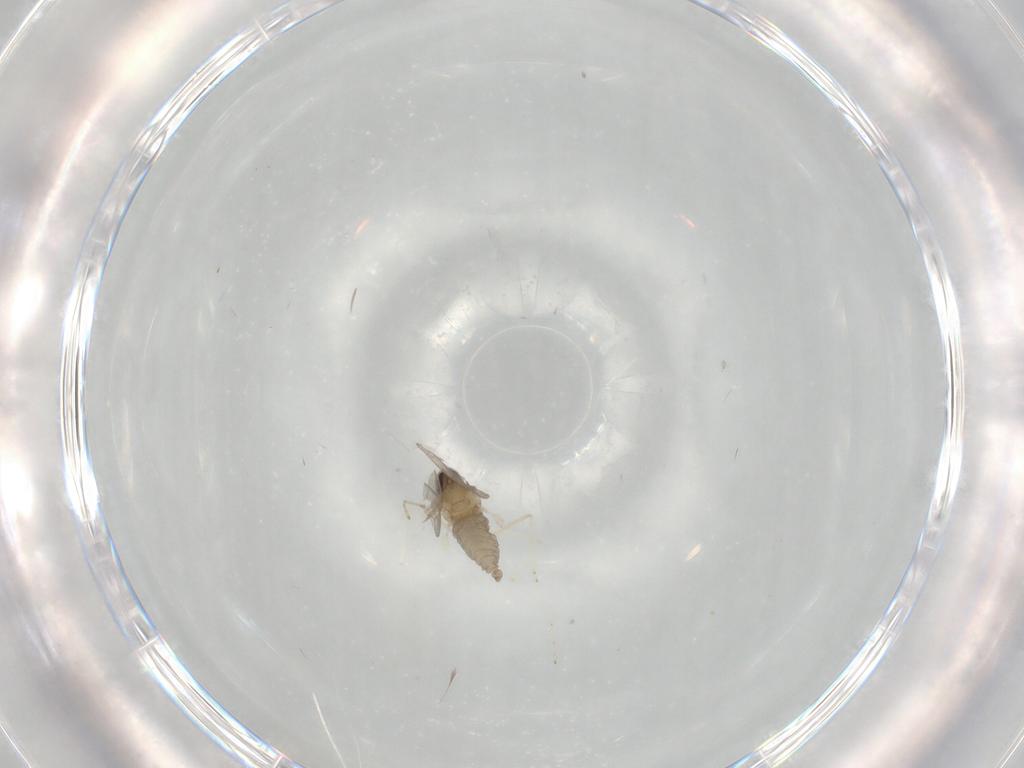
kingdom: Animalia
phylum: Arthropoda
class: Insecta
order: Diptera
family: Cecidomyiidae
